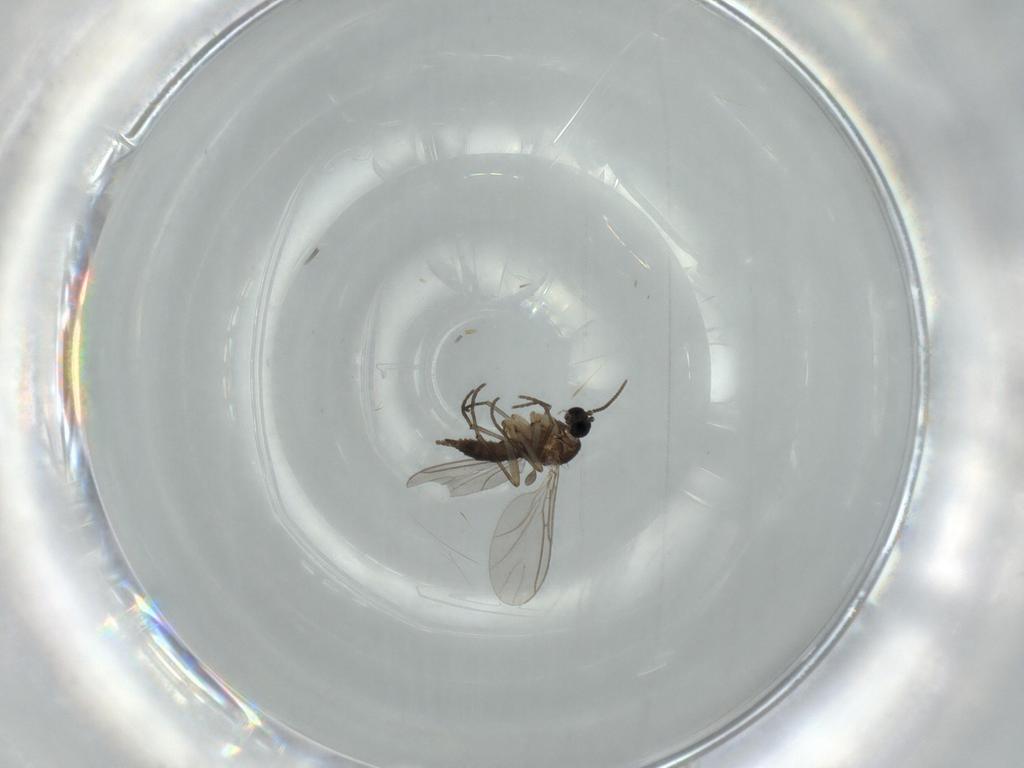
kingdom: Animalia
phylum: Arthropoda
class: Insecta
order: Diptera
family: Sciaridae
